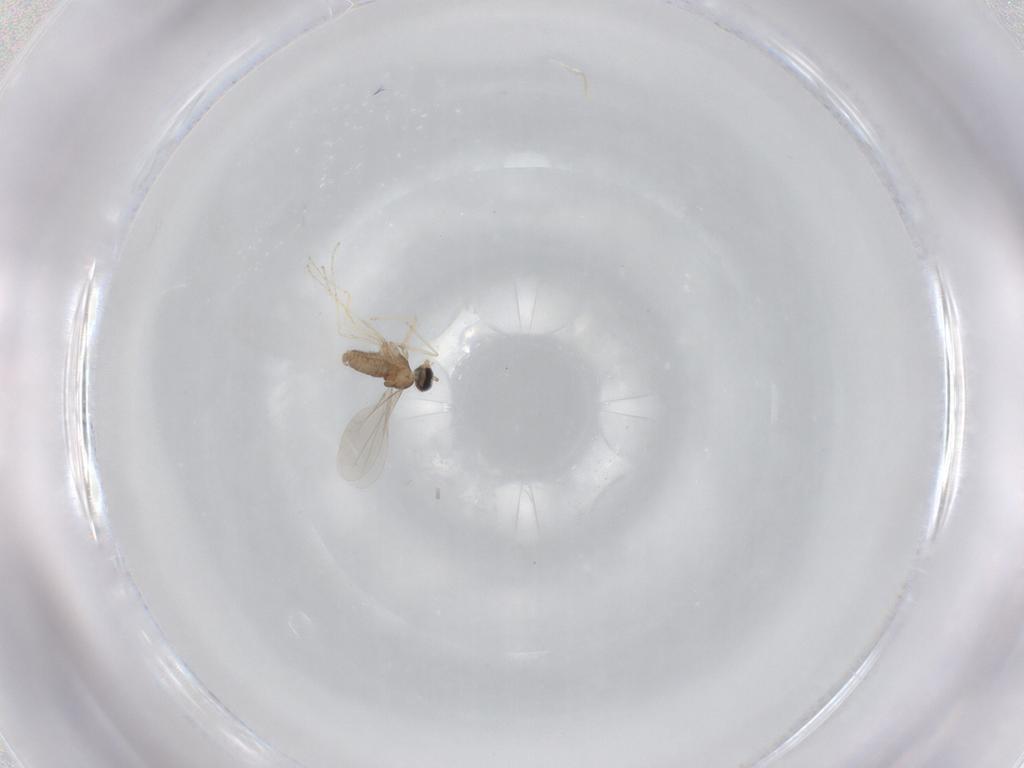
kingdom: Animalia
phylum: Arthropoda
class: Insecta
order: Diptera
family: Cecidomyiidae
